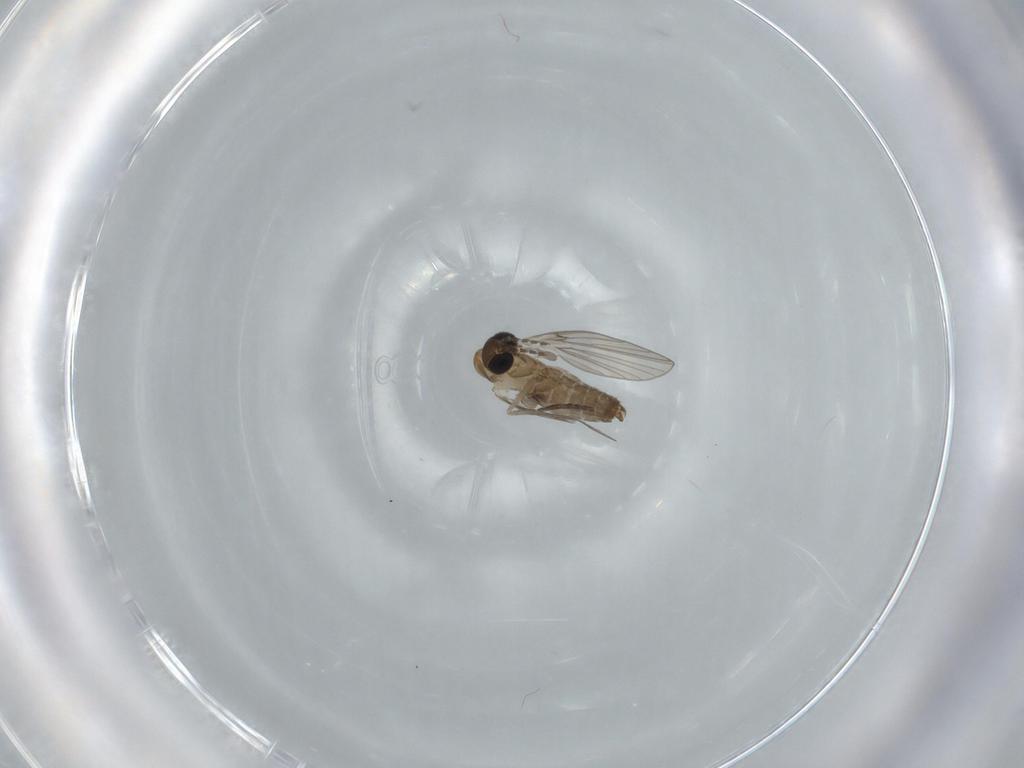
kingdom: Animalia
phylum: Arthropoda
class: Insecta
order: Diptera
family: Psychodidae
